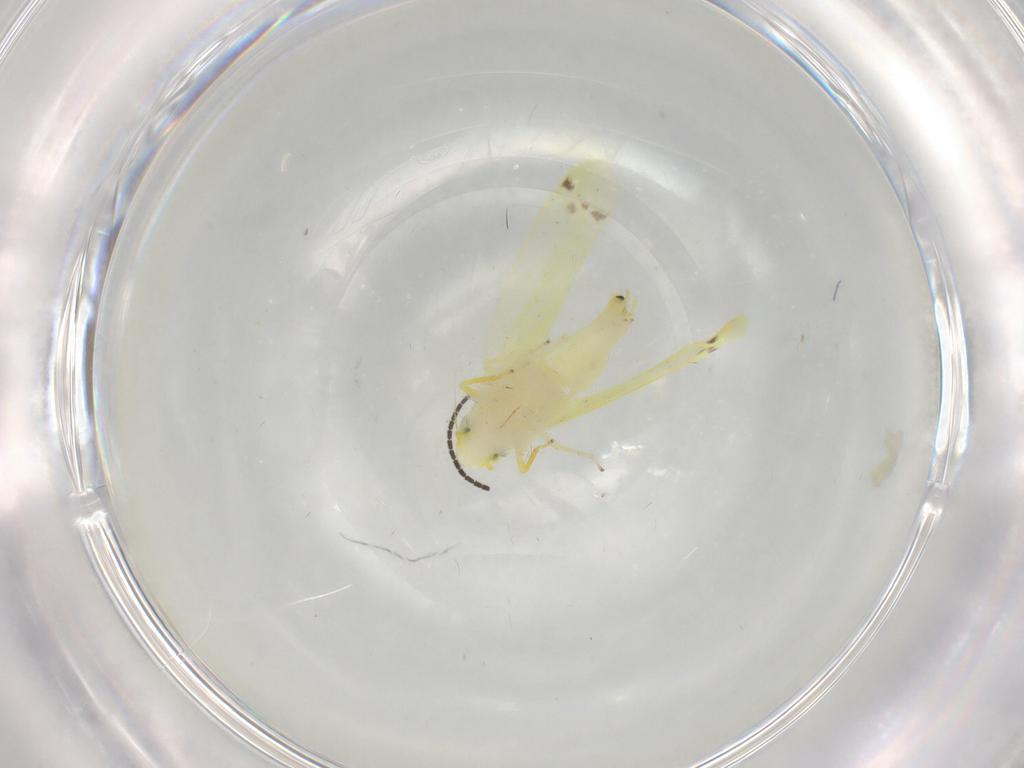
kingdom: Animalia
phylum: Arthropoda
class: Insecta
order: Hemiptera
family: Cicadellidae
